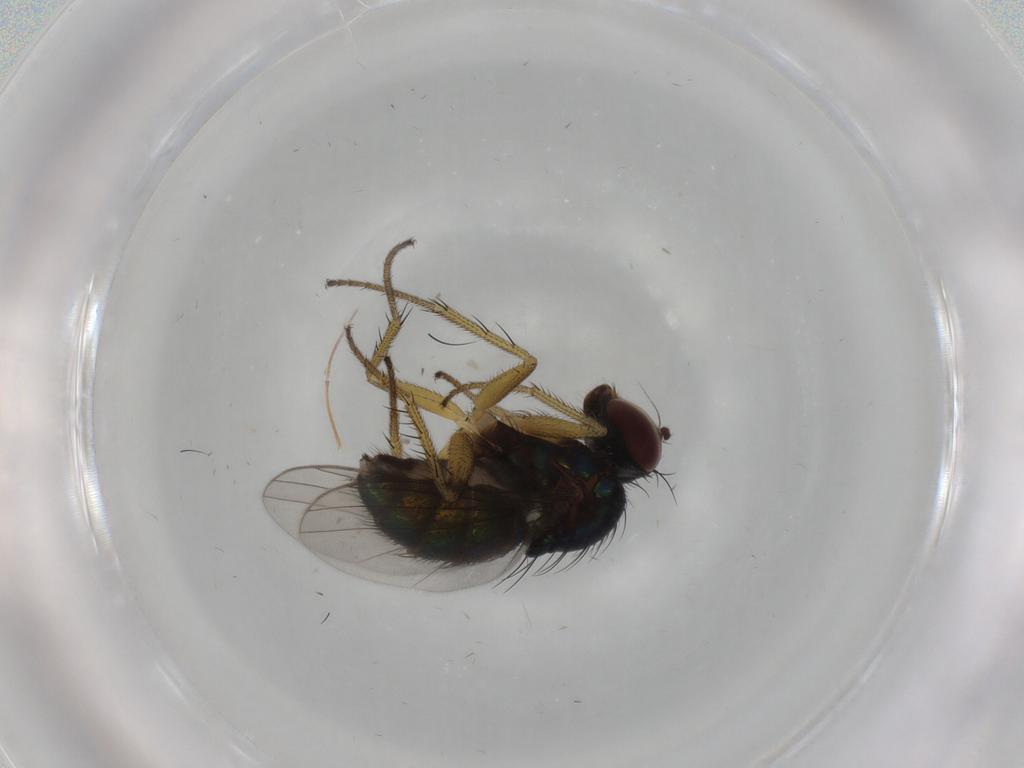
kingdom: Animalia
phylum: Arthropoda
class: Insecta
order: Diptera
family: Dolichopodidae
